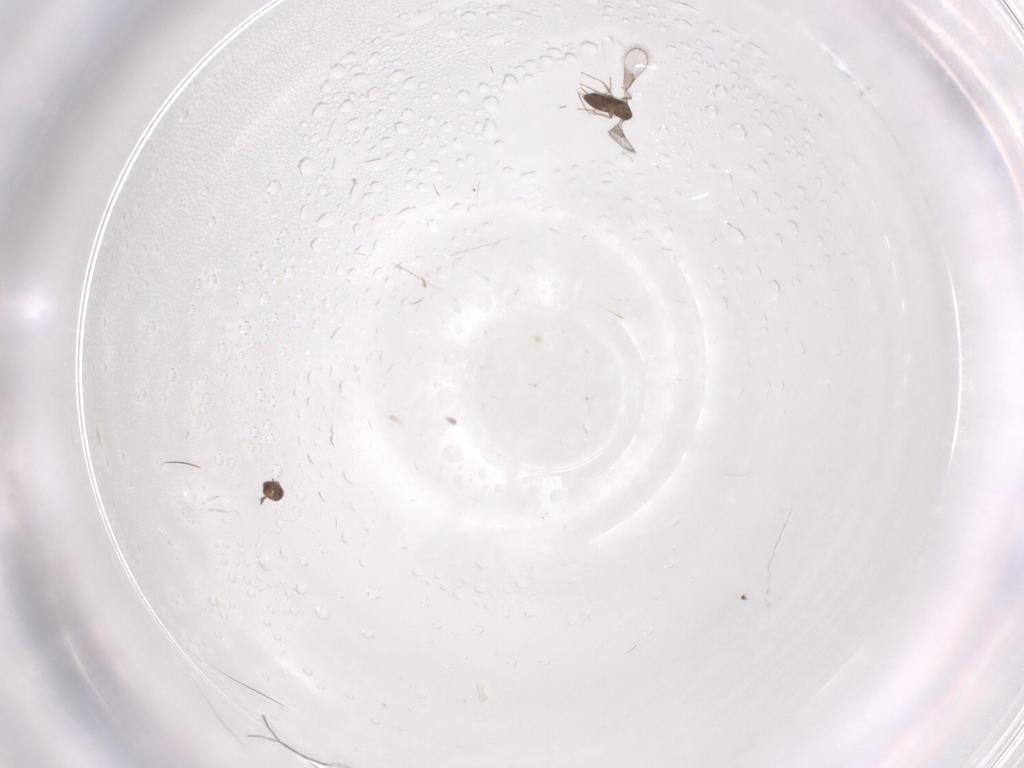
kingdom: Animalia
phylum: Arthropoda
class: Insecta
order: Hymenoptera
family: Trichogrammatidae
